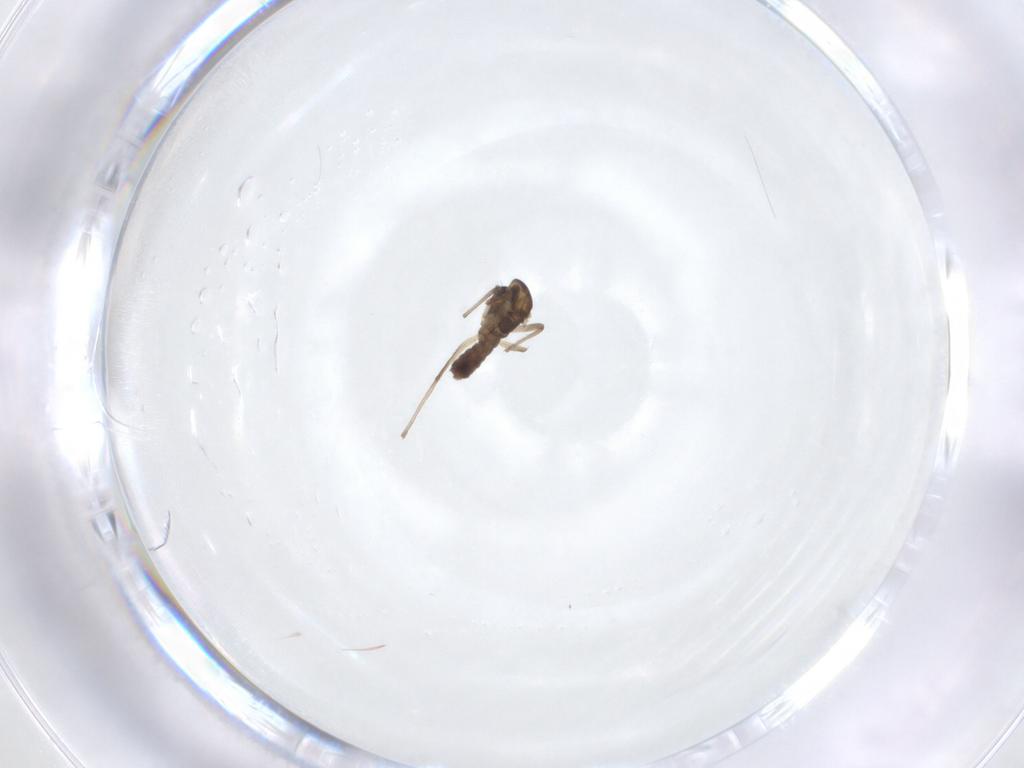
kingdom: Animalia
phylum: Arthropoda
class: Insecta
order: Diptera
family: Chironomidae
